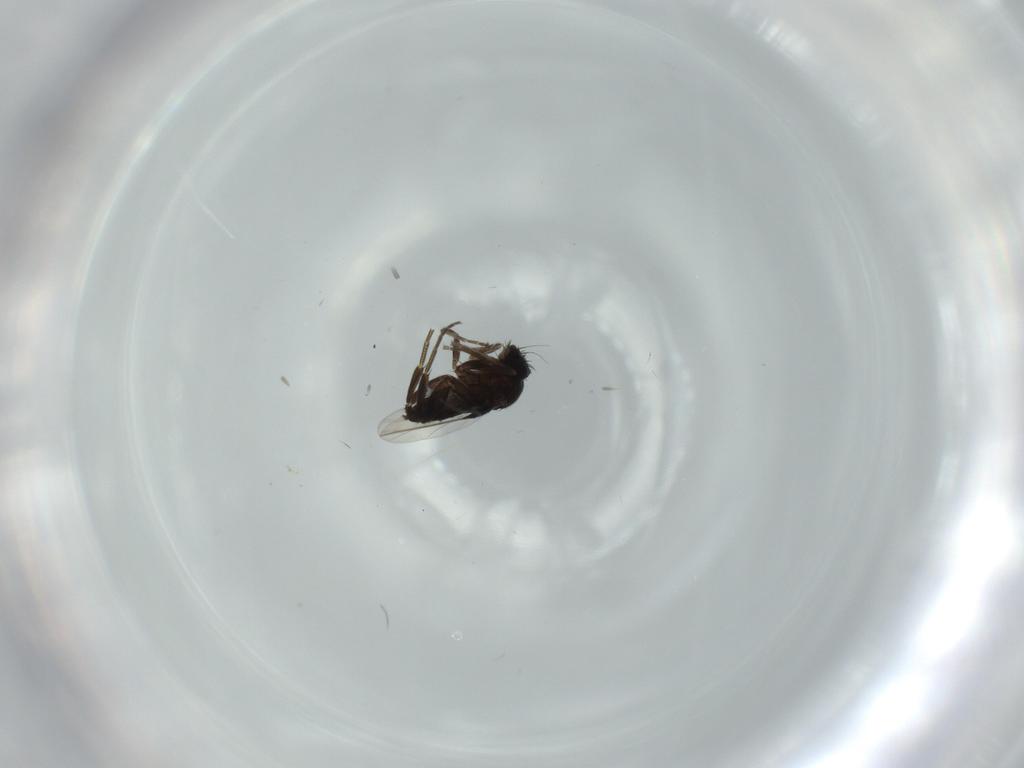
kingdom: Animalia
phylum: Arthropoda
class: Insecta
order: Diptera
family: Phoridae
